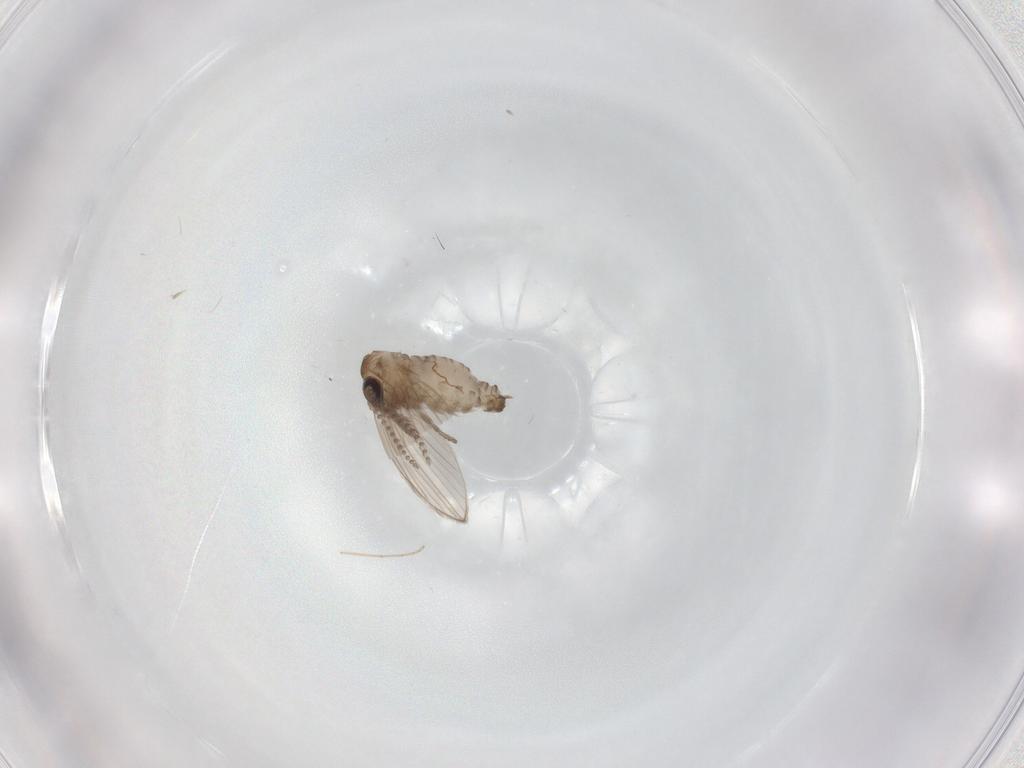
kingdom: Animalia
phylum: Arthropoda
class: Insecta
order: Diptera
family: Psychodidae
